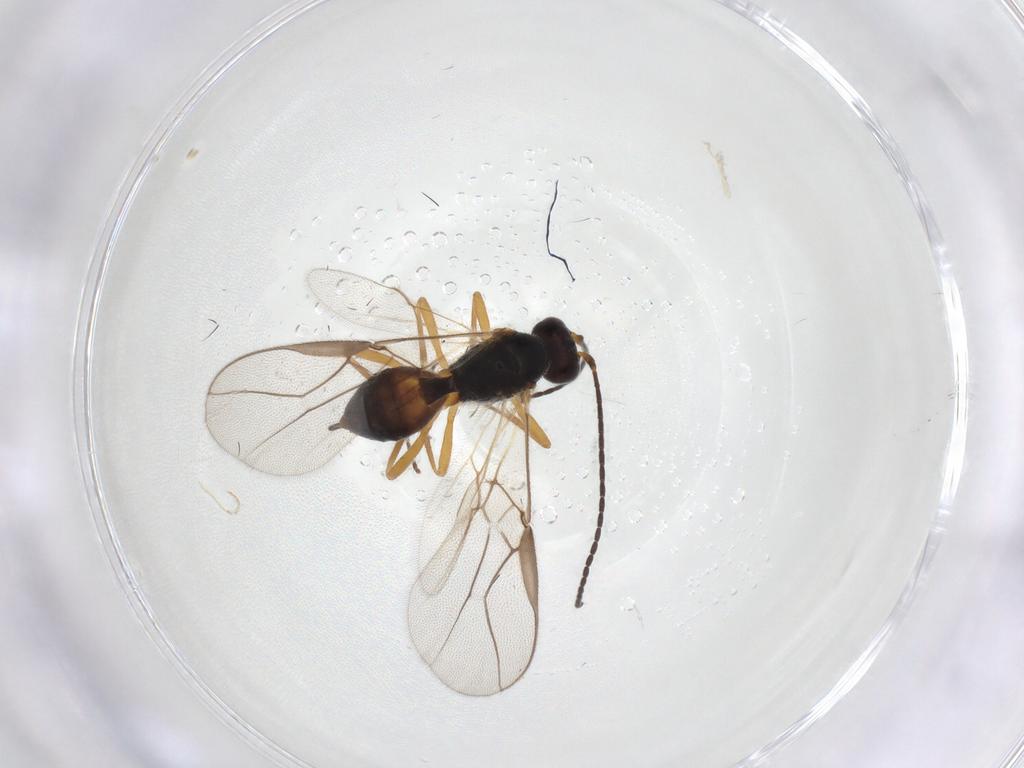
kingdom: Animalia
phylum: Arthropoda
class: Insecta
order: Hymenoptera
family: Braconidae
